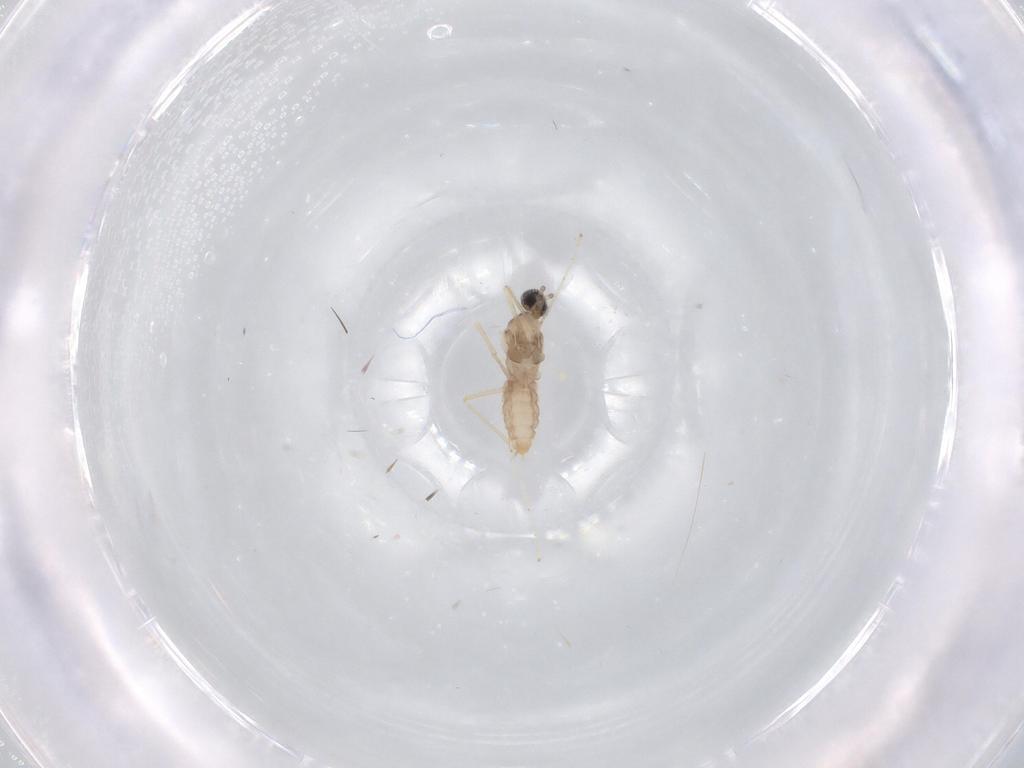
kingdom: Animalia
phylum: Arthropoda
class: Insecta
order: Diptera
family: Cecidomyiidae
